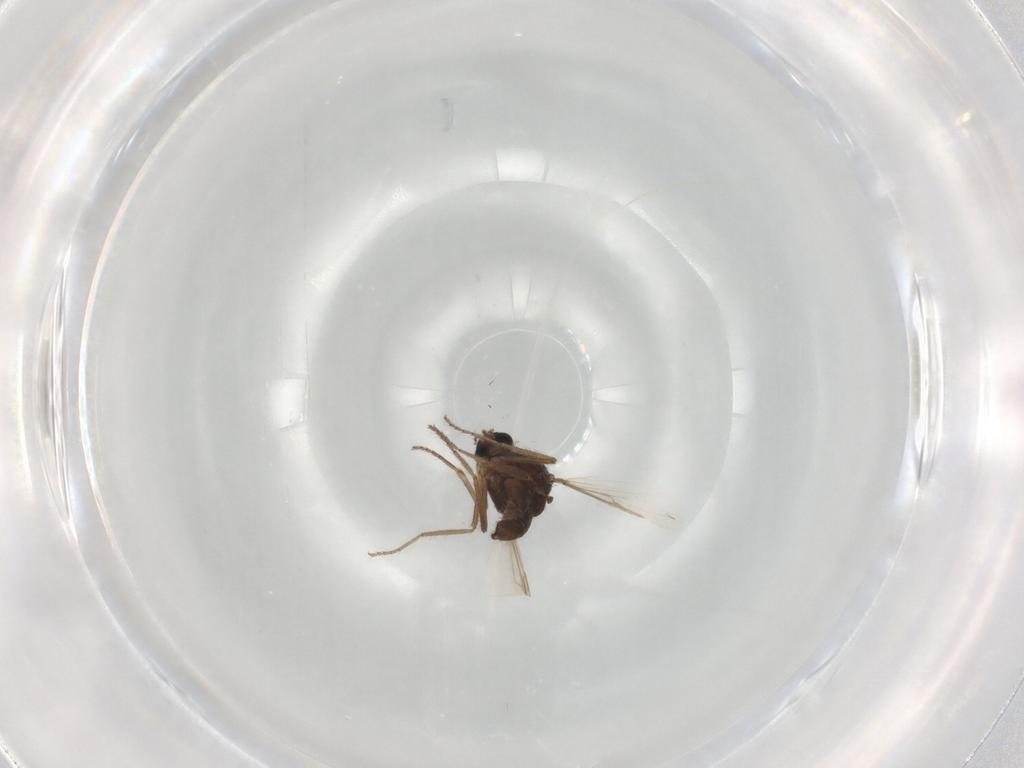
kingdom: Animalia
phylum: Arthropoda
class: Insecta
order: Diptera
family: Ceratopogonidae
